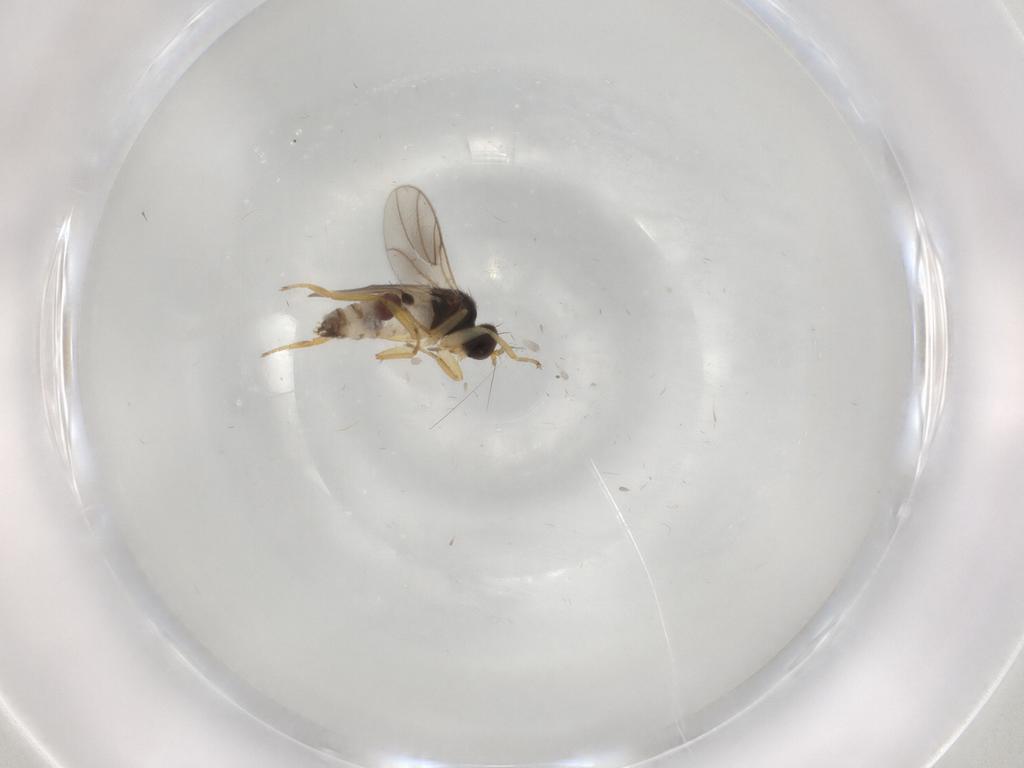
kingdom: Animalia
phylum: Arthropoda
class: Insecta
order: Diptera
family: Hybotidae
